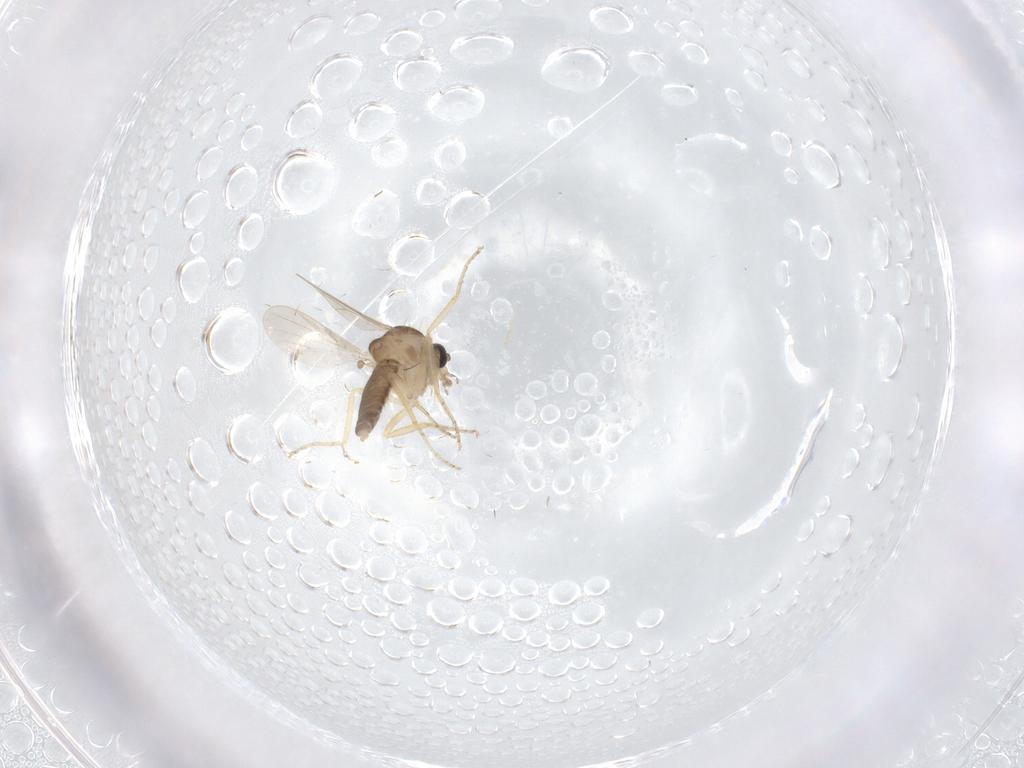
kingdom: Animalia
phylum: Arthropoda
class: Insecta
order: Diptera
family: Ceratopogonidae
